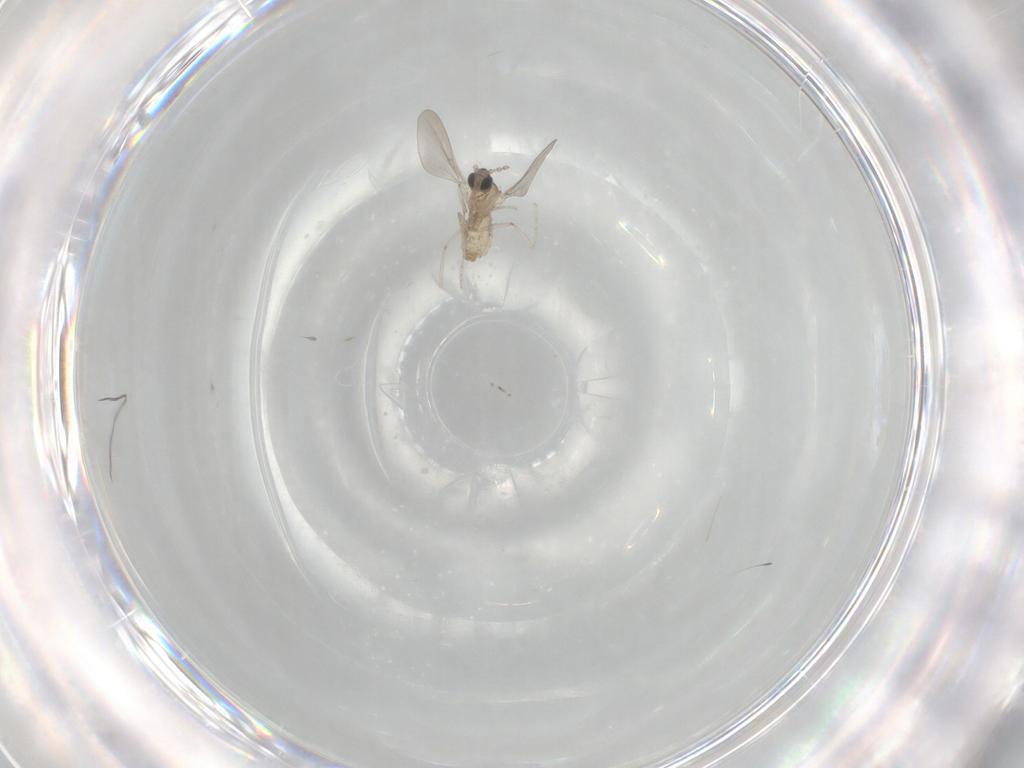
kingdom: Animalia
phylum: Arthropoda
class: Insecta
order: Diptera
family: Cecidomyiidae
